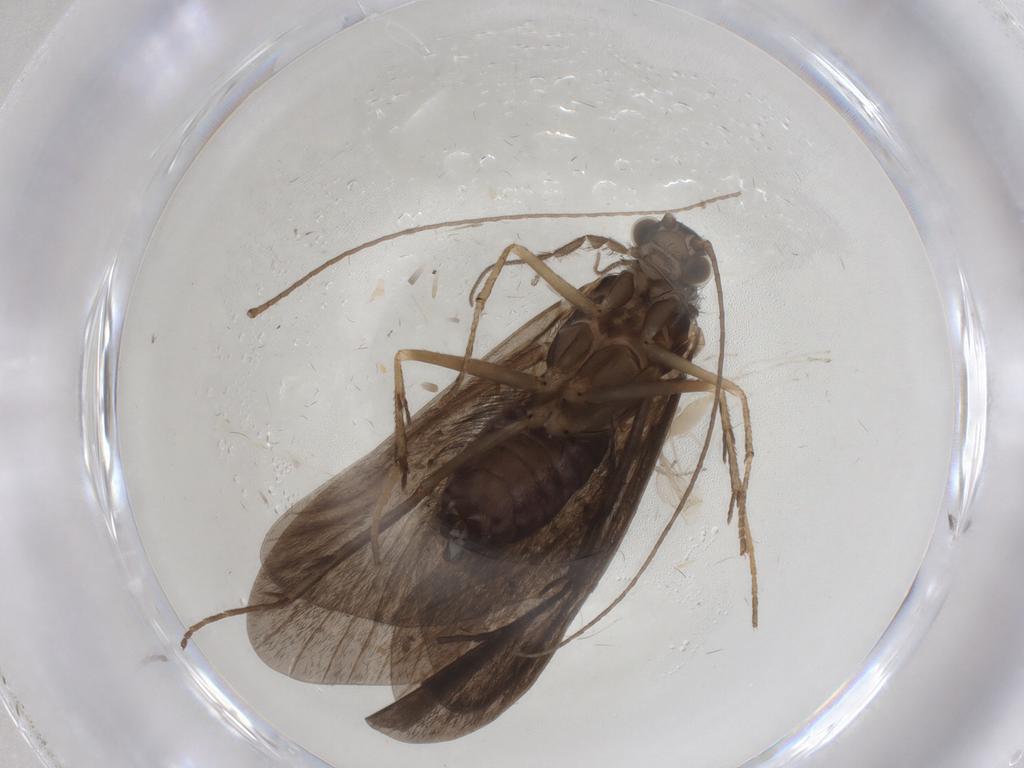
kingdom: Animalia
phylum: Arthropoda
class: Insecta
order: Trichoptera
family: Hydropsychidae
